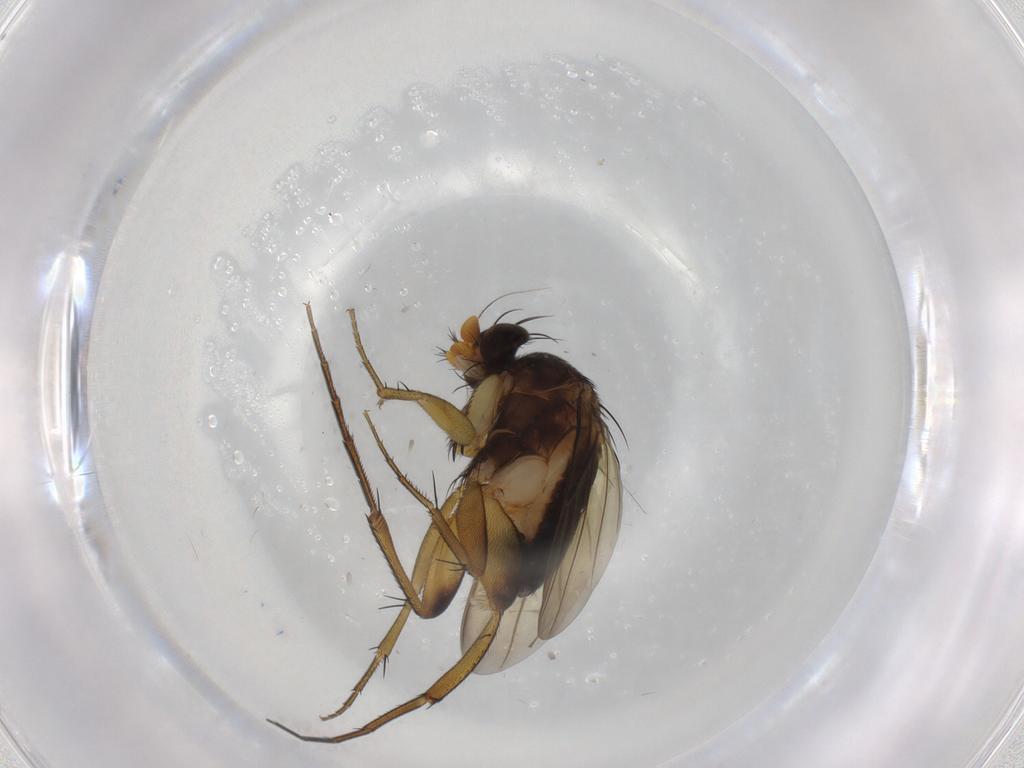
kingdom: Animalia
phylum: Arthropoda
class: Insecta
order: Diptera
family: Phoridae
